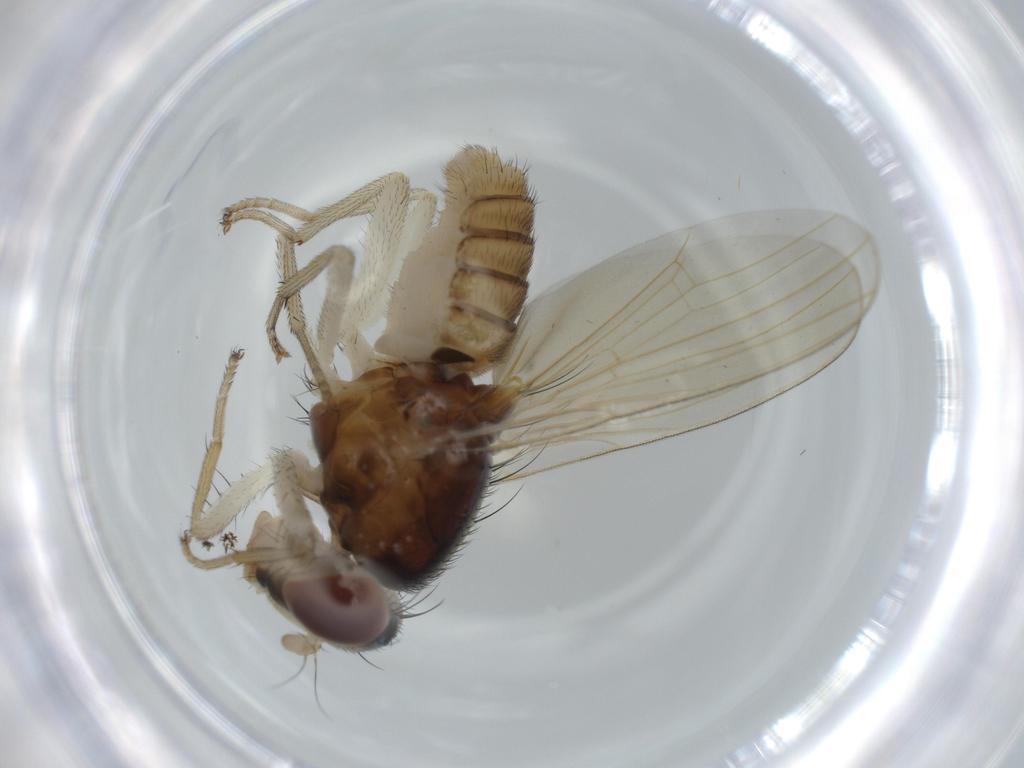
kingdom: Animalia
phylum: Arthropoda
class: Insecta
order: Diptera
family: Lauxaniidae
